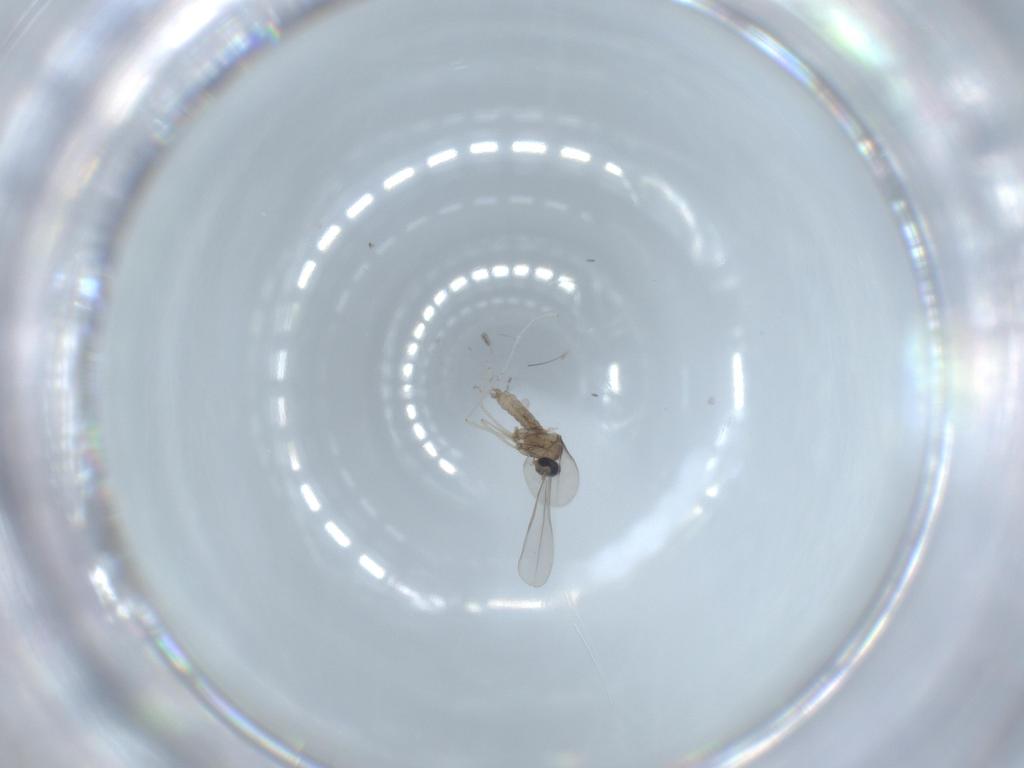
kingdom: Animalia
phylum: Arthropoda
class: Insecta
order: Diptera
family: Cecidomyiidae
